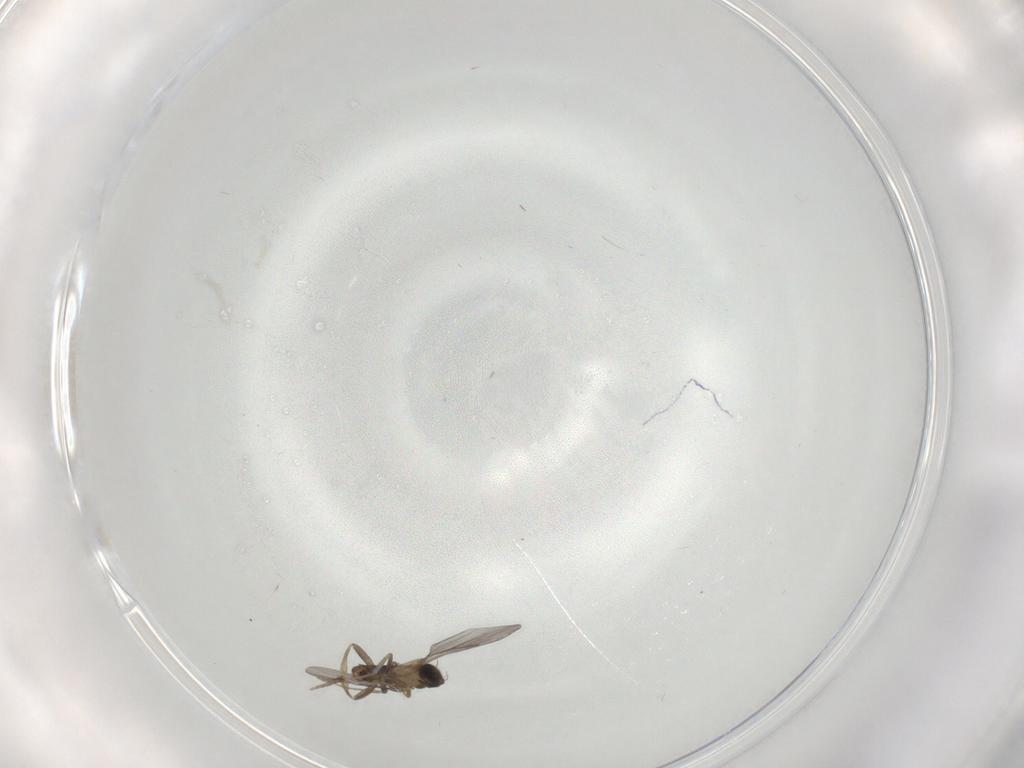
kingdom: Animalia
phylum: Arthropoda
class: Insecta
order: Diptera
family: Cecidomyiidae
